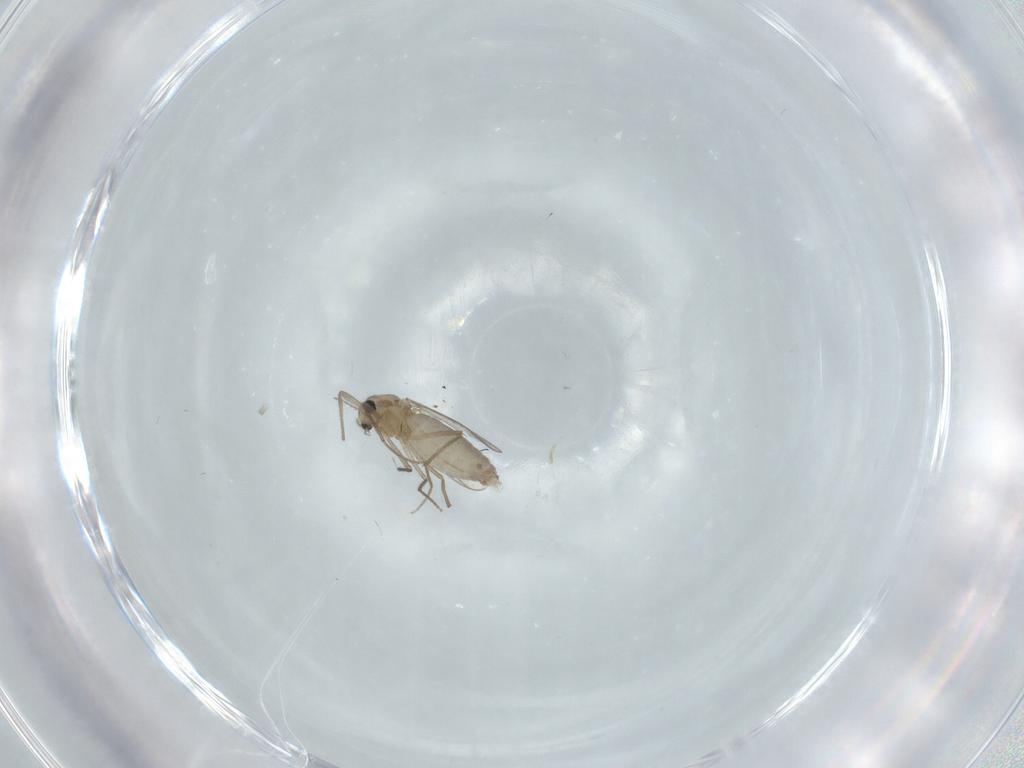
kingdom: Animalia
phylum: Arthropoda
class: Insecta
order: Diptera
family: Chironomidae
